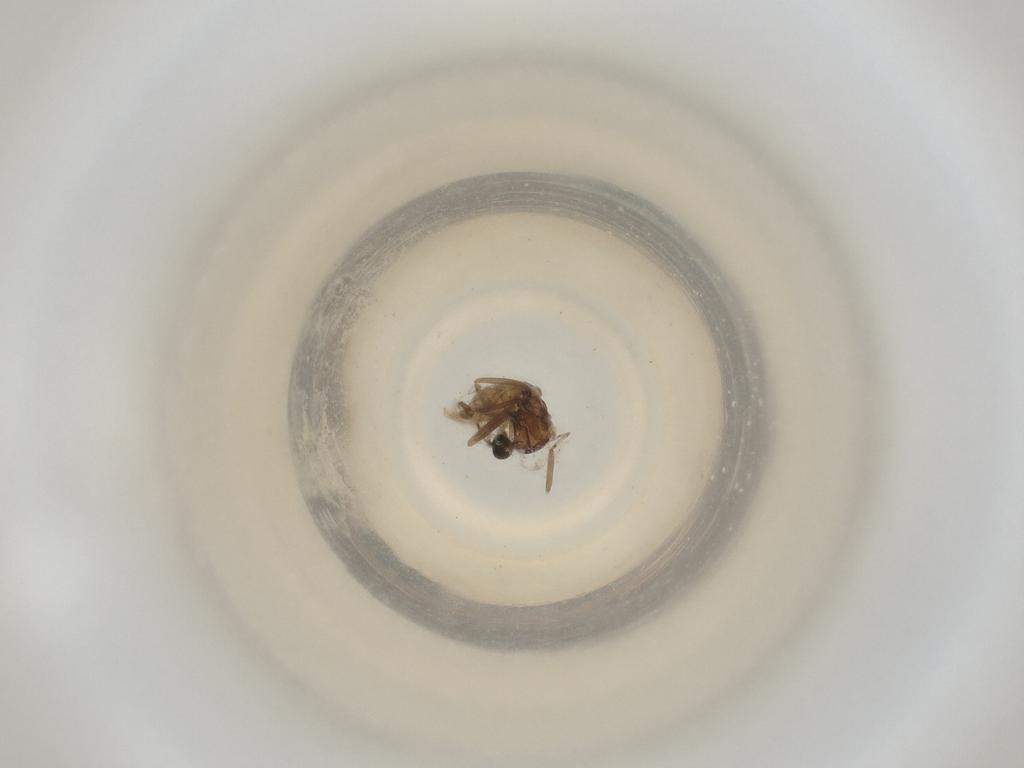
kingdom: Animalia
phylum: Arthropoda
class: Insecta
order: Diptera
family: Cecidomyiidae
